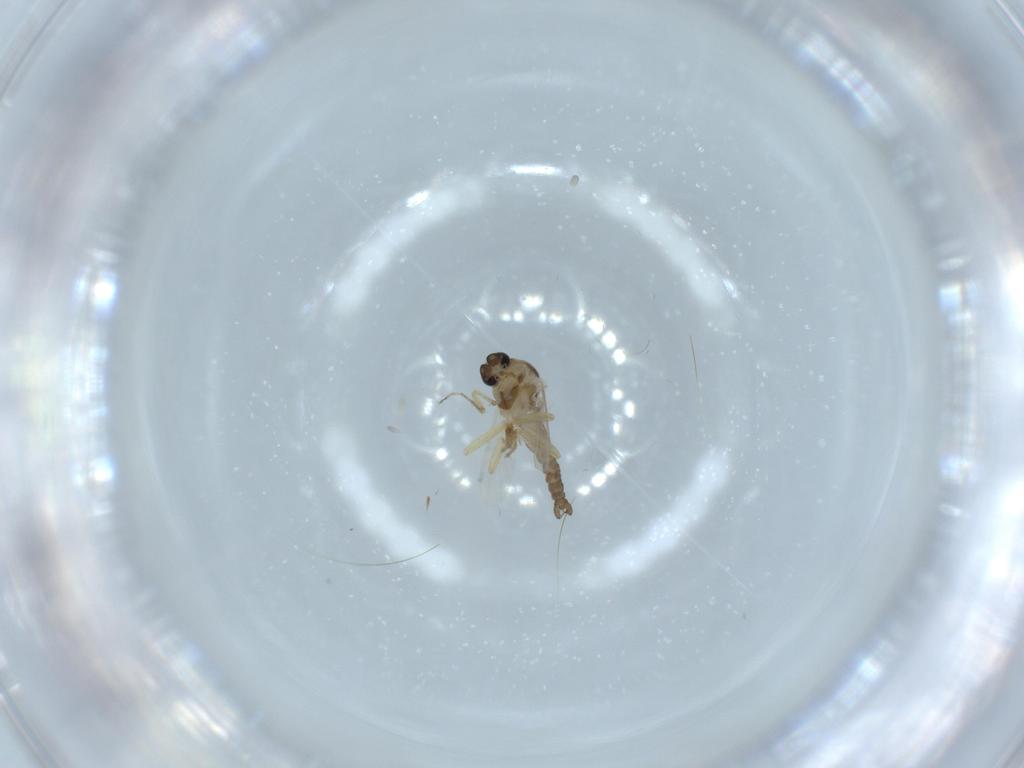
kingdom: Animalia
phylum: Arthropoda
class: Insecta
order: Diptera
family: Ceratopogonidae
